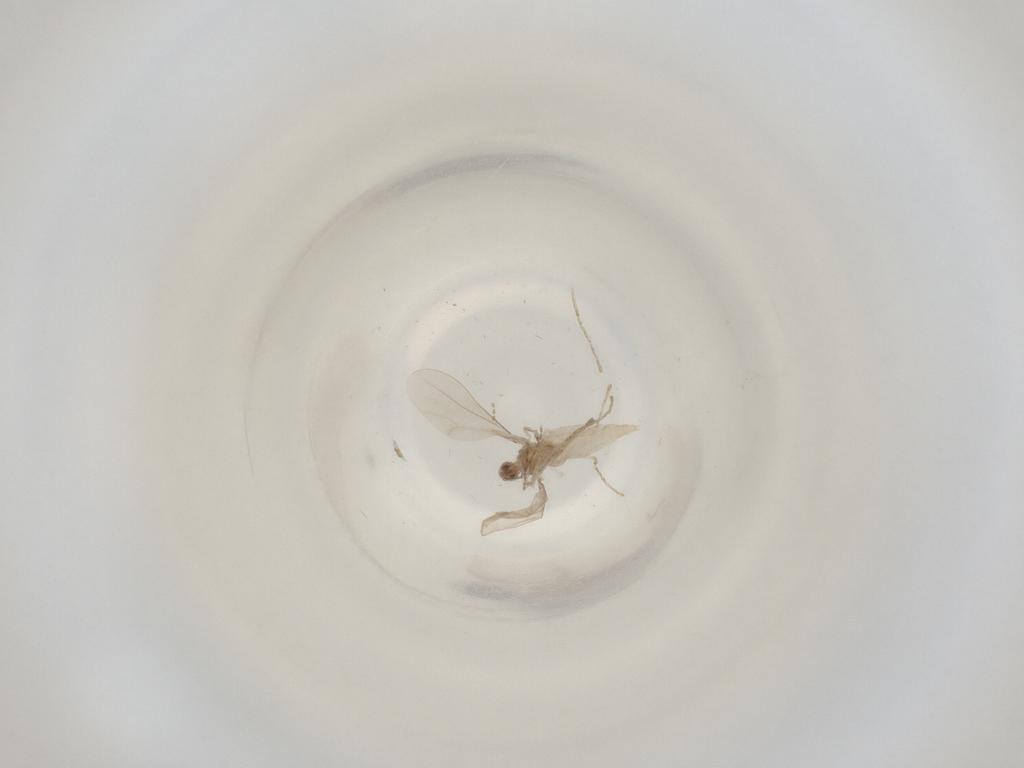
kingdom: Animalia
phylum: Arthropoda
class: Insecta
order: Diptera
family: Cecidomyiidae
